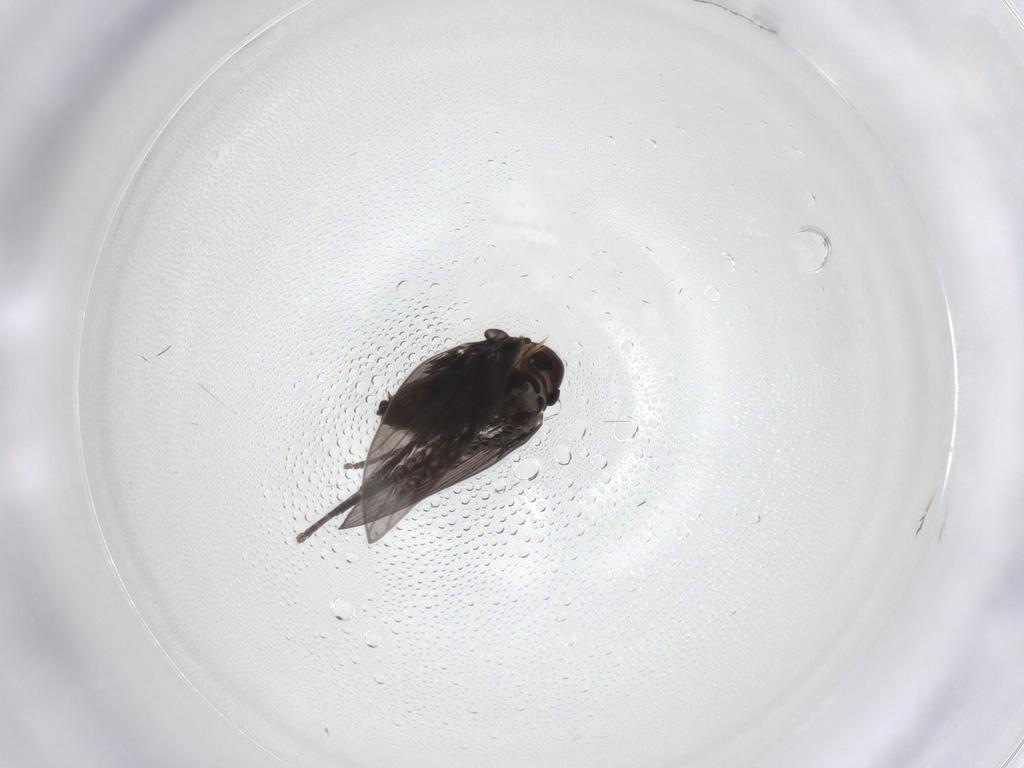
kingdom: Animalia
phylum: Arthropoda
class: Insecta
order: Diptera
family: Limoniidae
